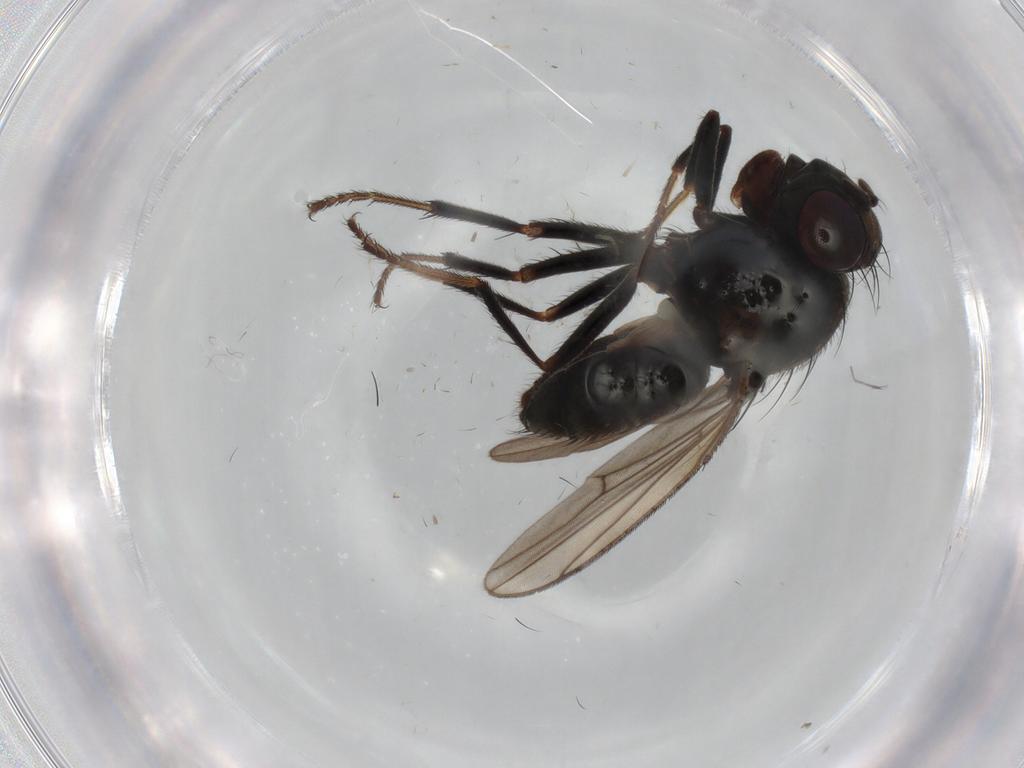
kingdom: Animalia
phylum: Arthropoda
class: Insecta
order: Diptera
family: Ephydridae
